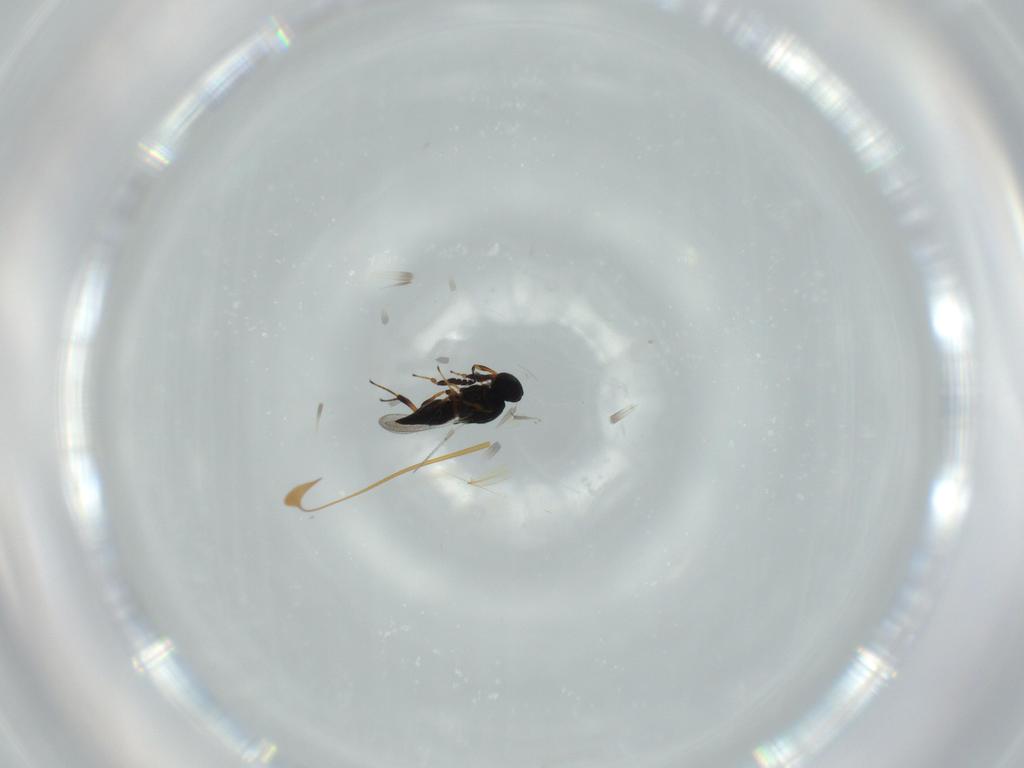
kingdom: Animalia
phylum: Arthropoda
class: Insecta
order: Hymenoptera
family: Platygastridae
